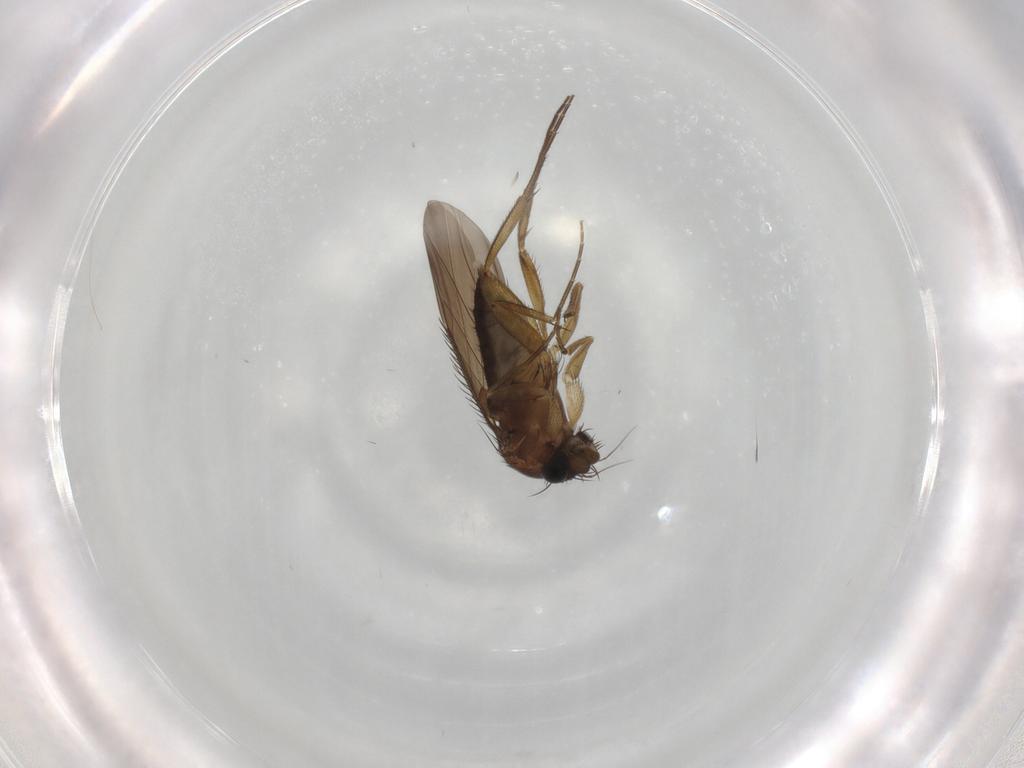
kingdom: Animalia
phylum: Arthropoda
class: Insecta
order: Diptera
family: Phoridae
